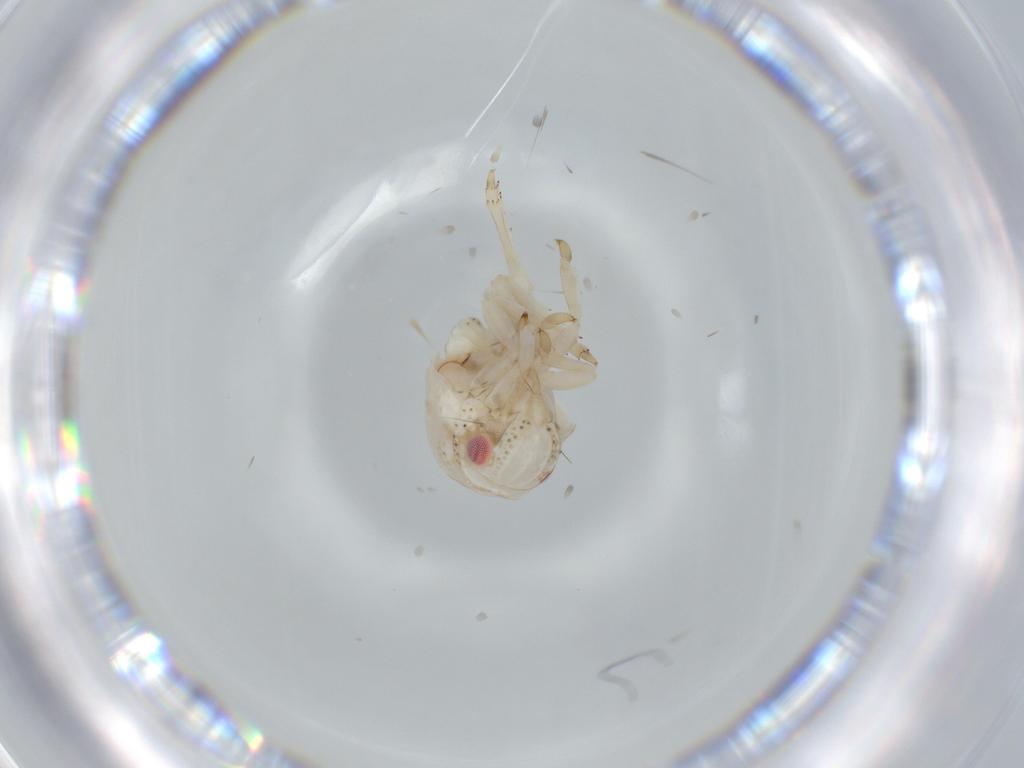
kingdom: Animalia
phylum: Arthropoda
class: Insecta
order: Hemiptera
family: Acanaloniidae
